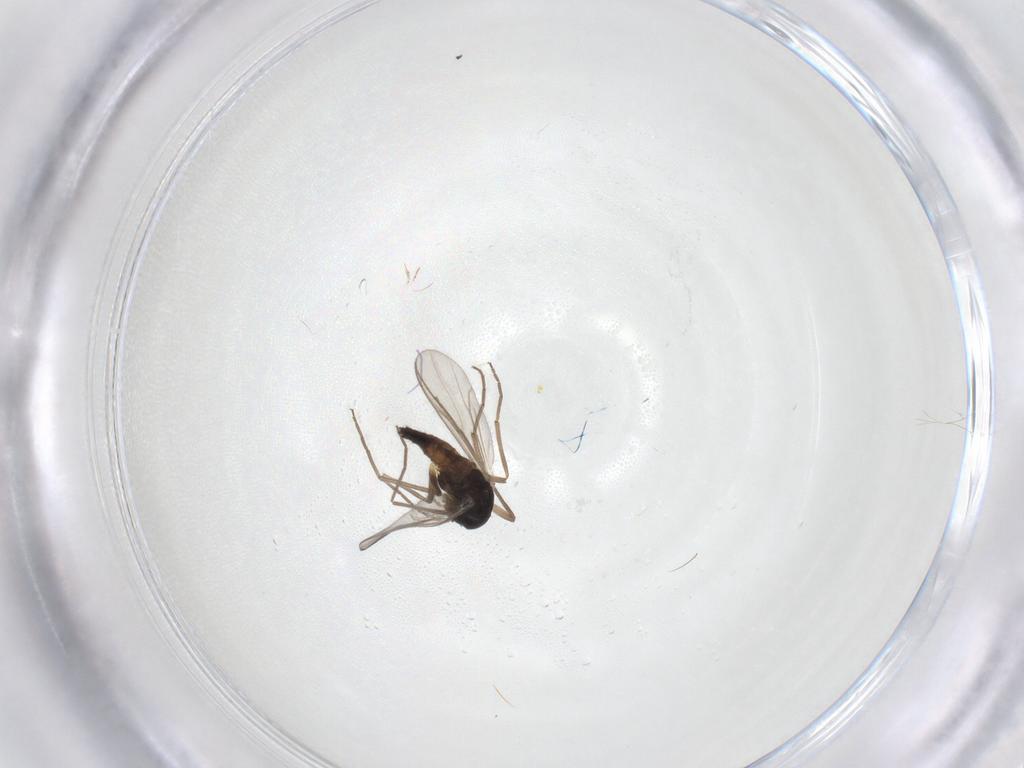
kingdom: Animalia
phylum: Arthropoda
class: Insecta
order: Diptera
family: Chironomidae
